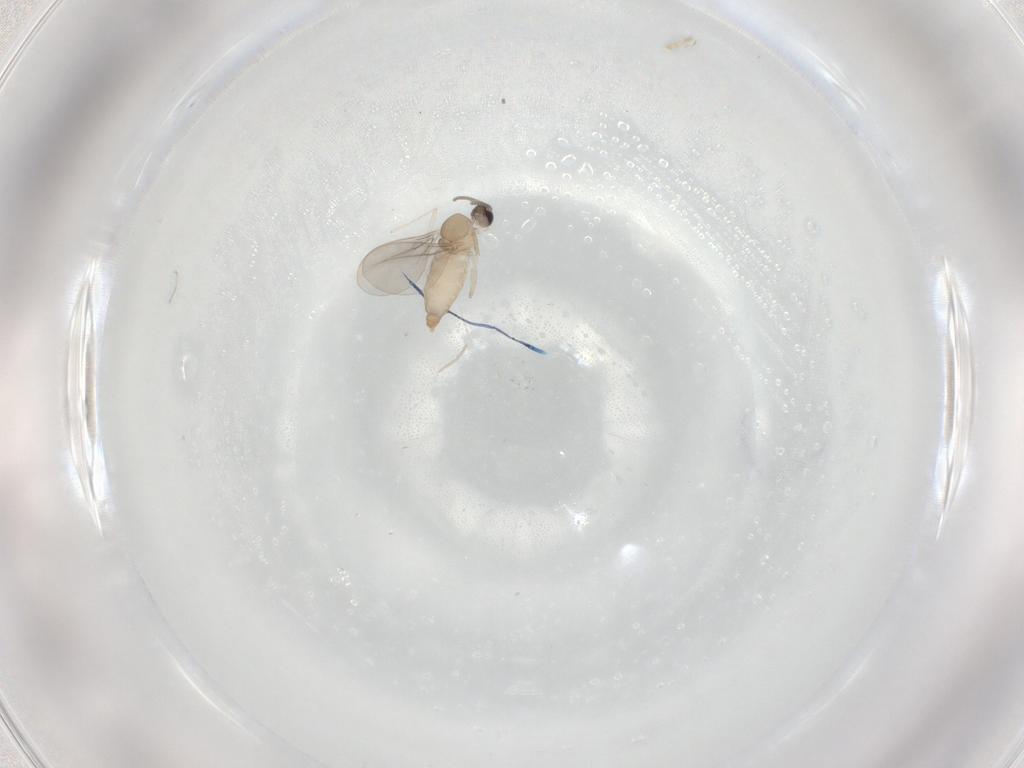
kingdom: Animalia
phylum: Arthropoda
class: Insecta
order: Diptera
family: Cecidomyiidae
